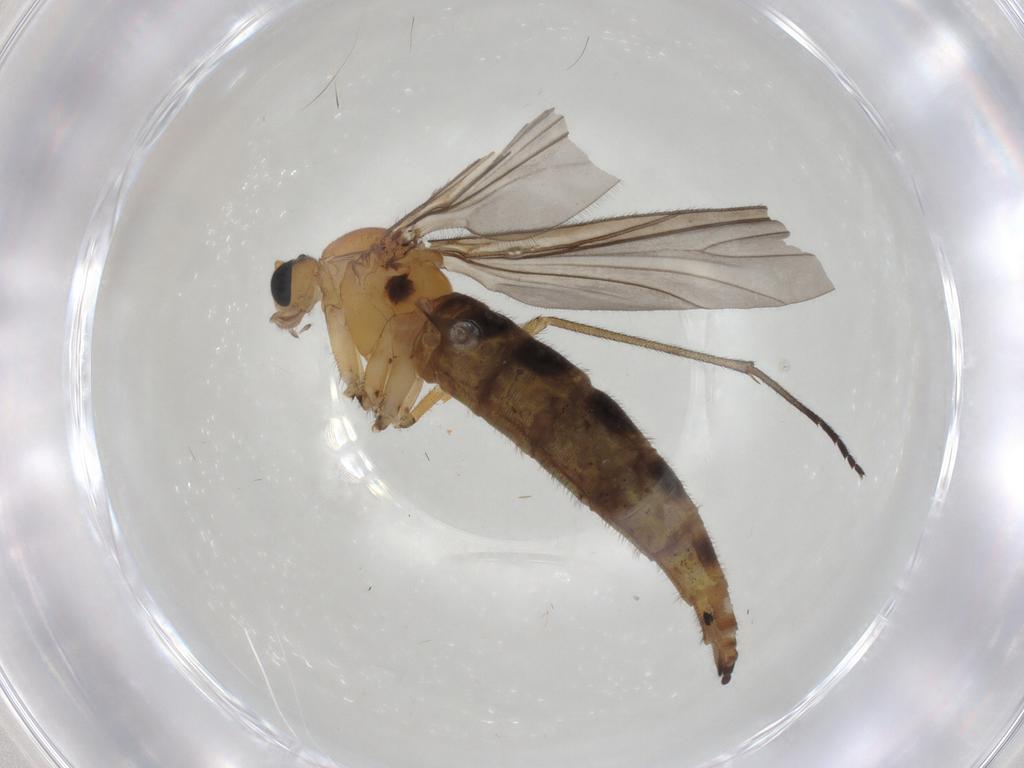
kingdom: Animalia
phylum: Arthropoda
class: Insecta
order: Diptera
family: Sciaridae
